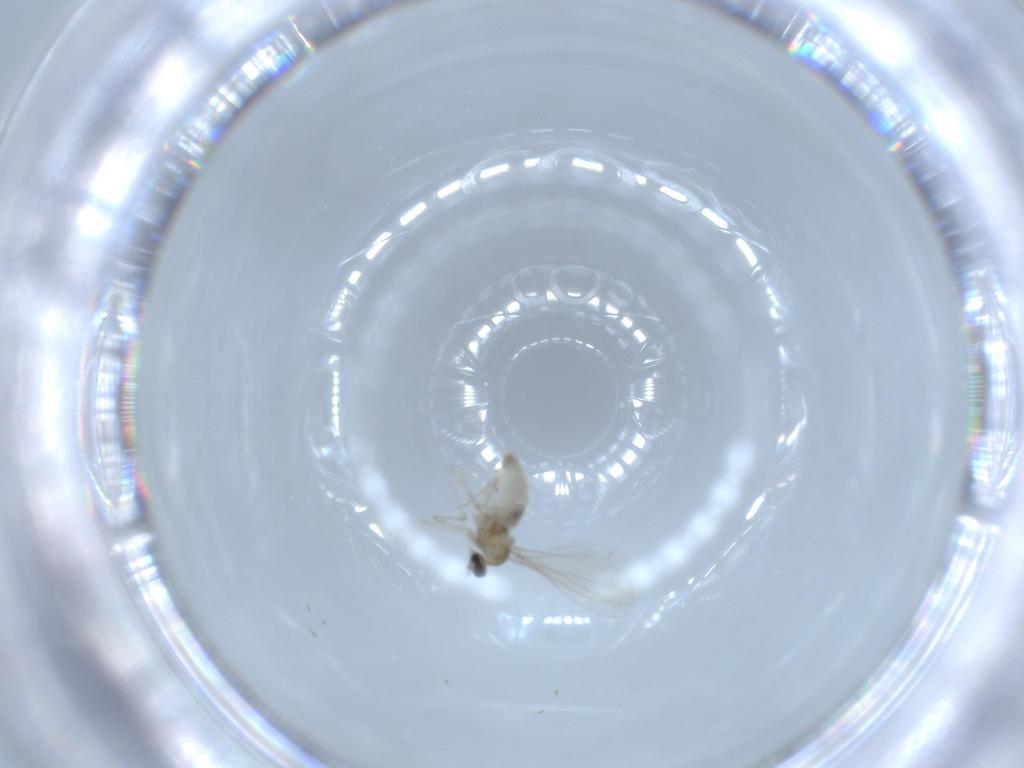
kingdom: Animalia
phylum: Arthropoda
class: Insecta
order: Diptera
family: Cecidomyiidae
